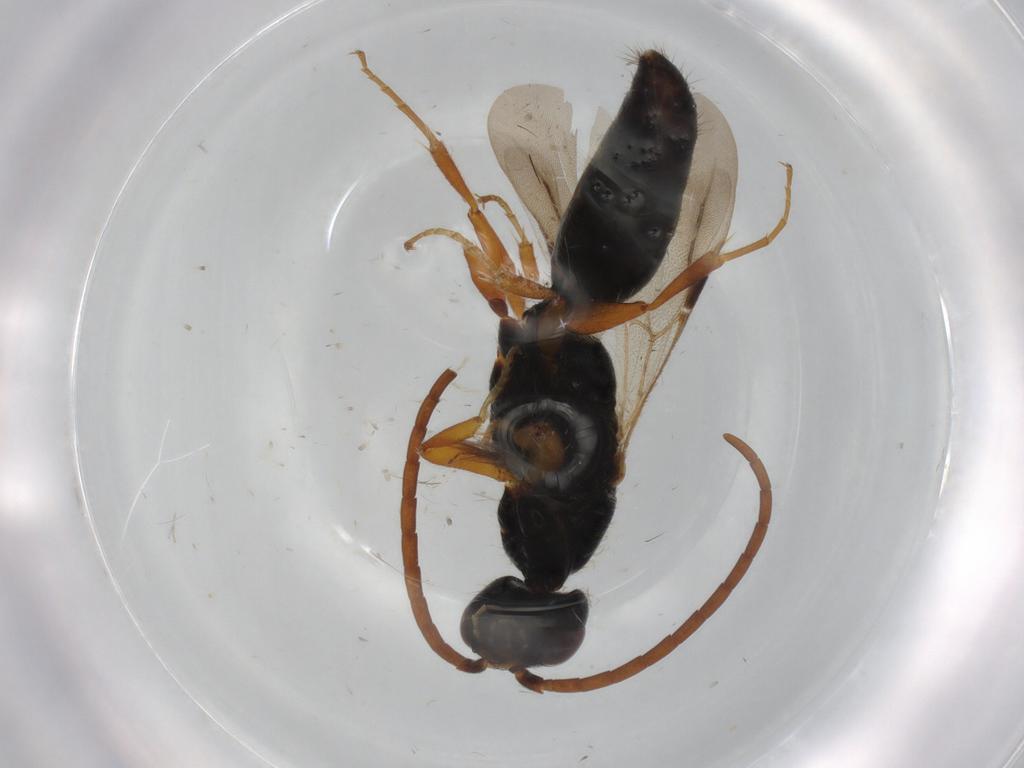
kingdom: Animalia
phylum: Arthropoda
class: Insecta
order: Hymenoptera
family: Bethylidae
